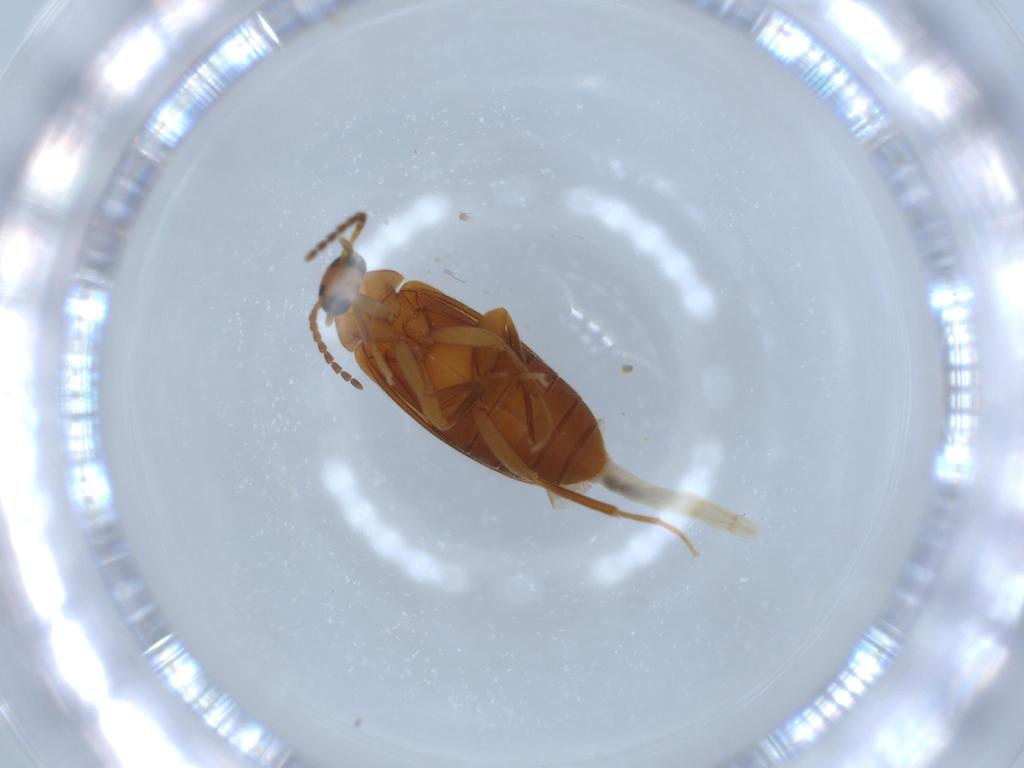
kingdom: Animalia
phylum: Arthropoda
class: Insecta
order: Coleoptera
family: Scraptiidae
